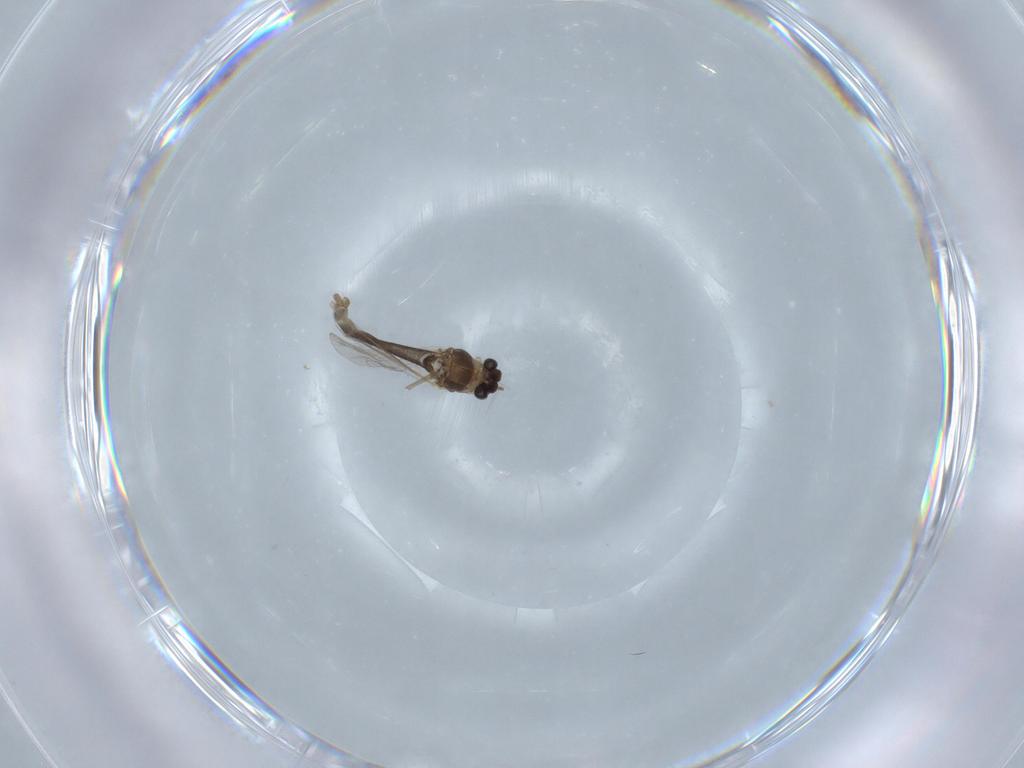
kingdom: Animalia
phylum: Arthropoda
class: Insecta
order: Diptera
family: Chironomidae
